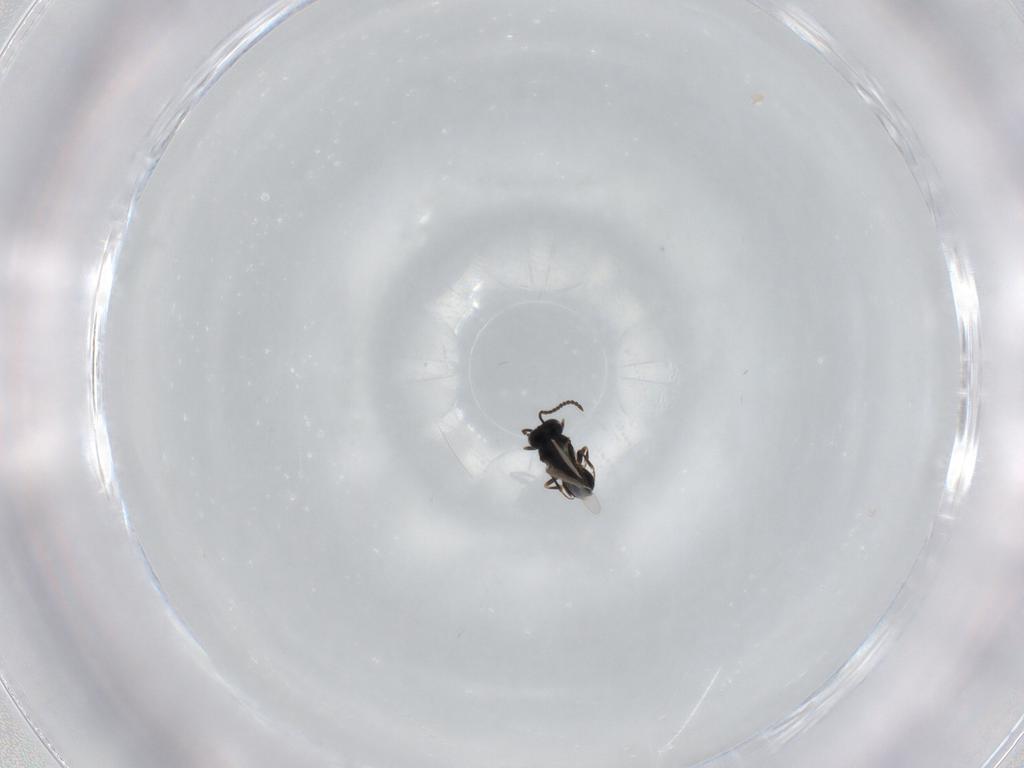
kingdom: Animalia
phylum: Arthropoda
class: Insecta
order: Hymenoptera
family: Scelionidae
